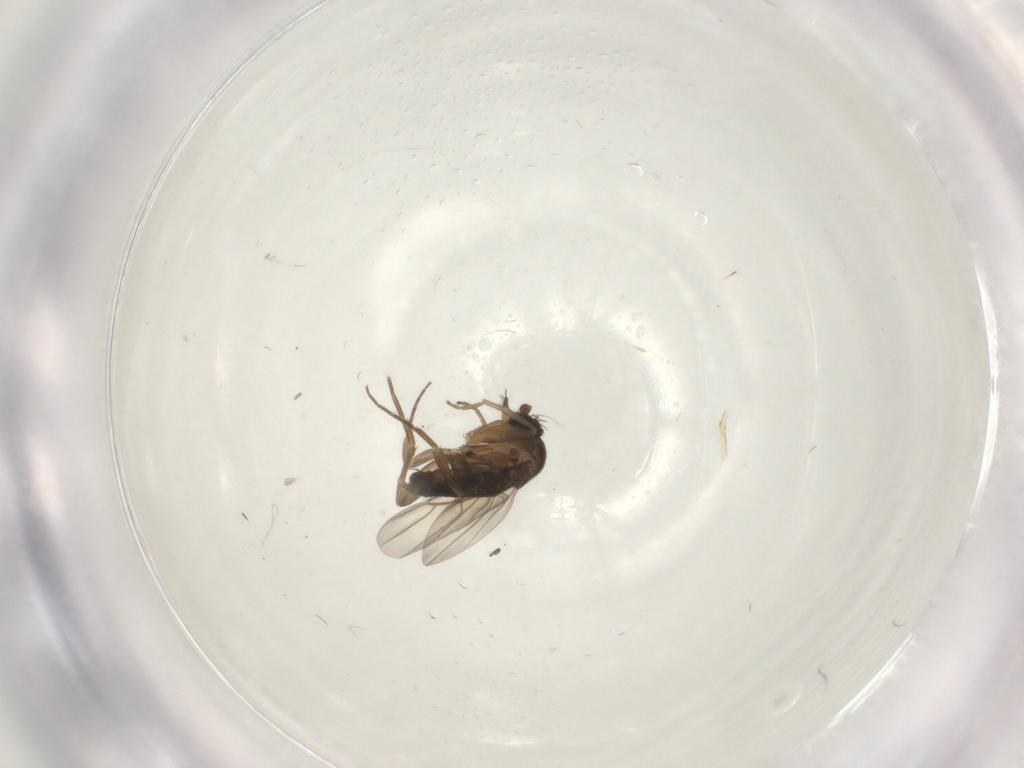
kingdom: Animalia
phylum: Arthropoda
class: Insecta
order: Diptera
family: Phoridae
